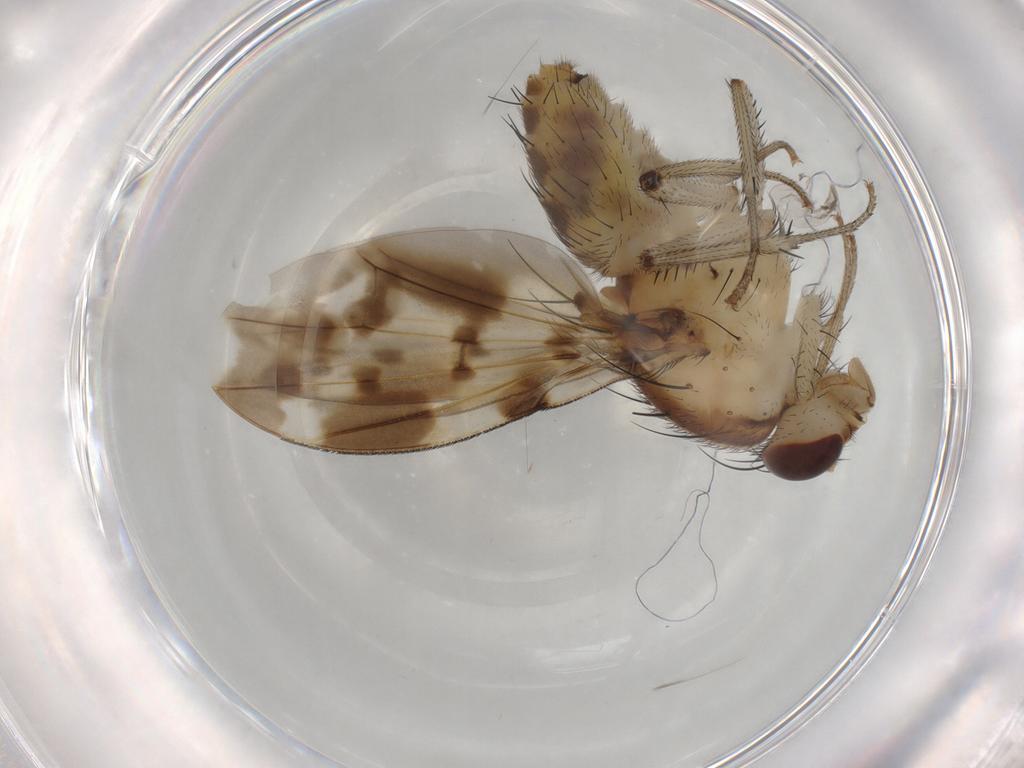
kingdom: Animalia
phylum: Arthropoda
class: Insecta
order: Diptera
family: Phoridae
